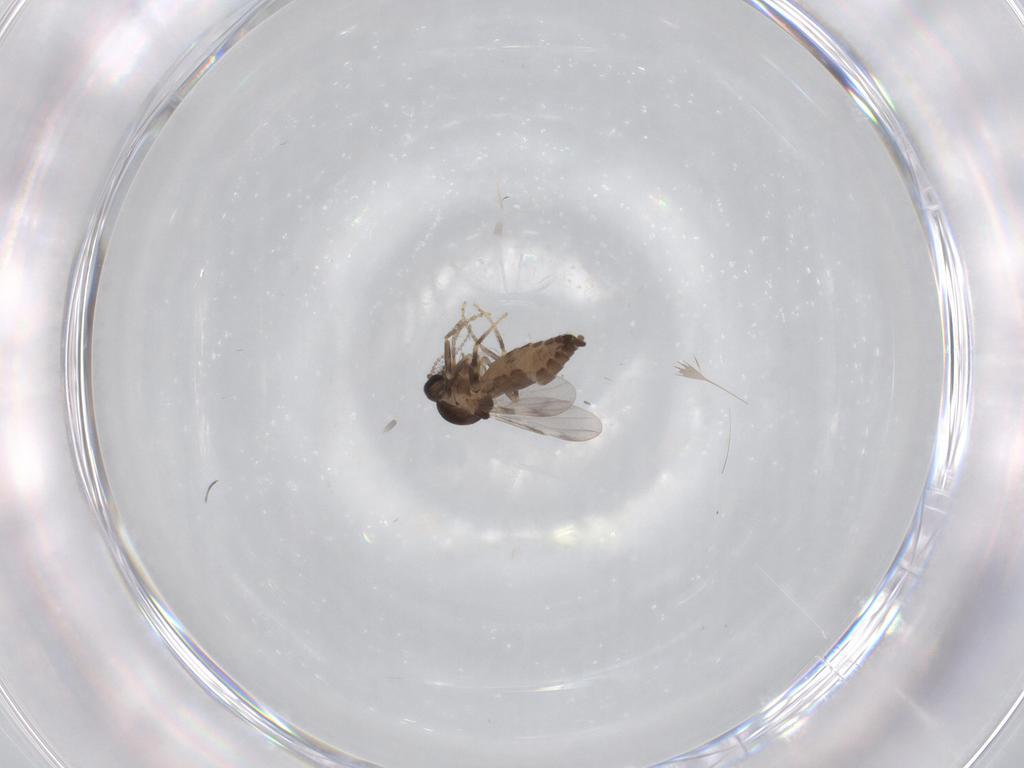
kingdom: Animalia
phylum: Arthropoda
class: Insecta
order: Diptera
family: Ceratopogonidae
